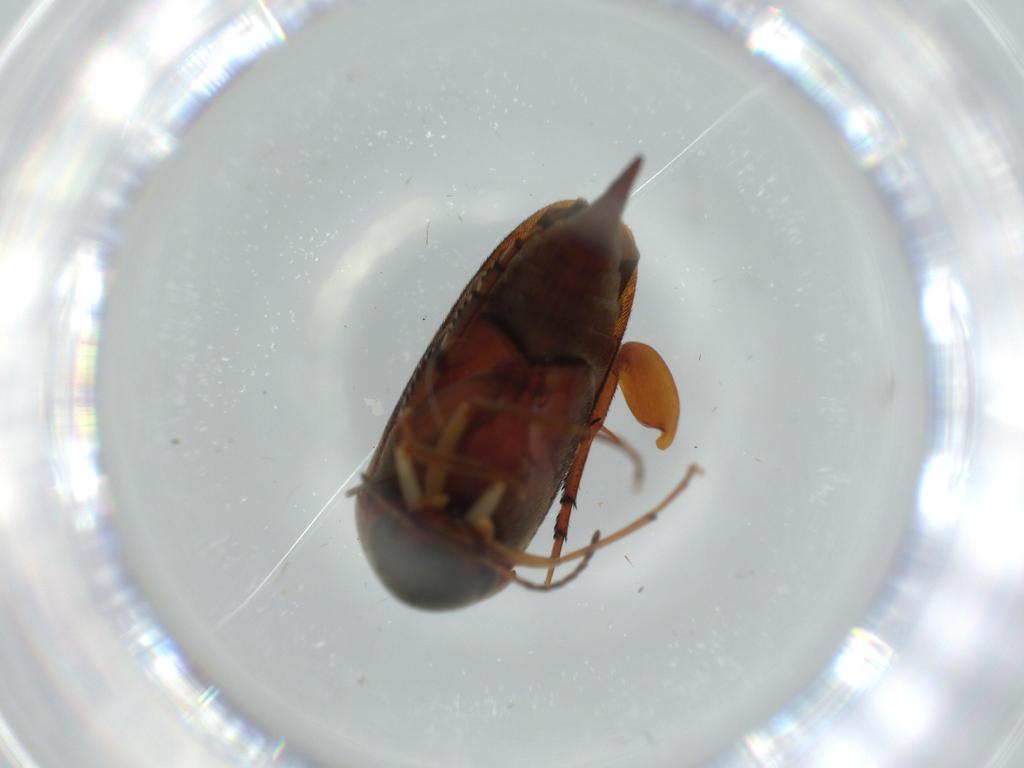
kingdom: Animalia
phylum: Arthropoda
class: Insecta
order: Coleoptera
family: Mordellidae
